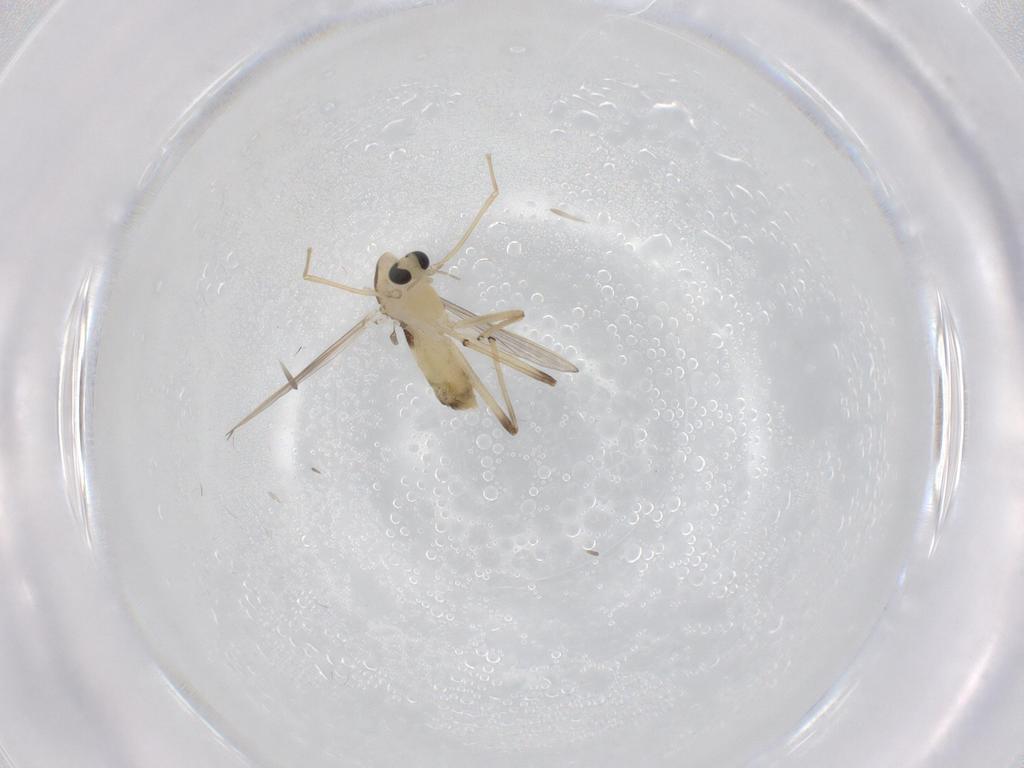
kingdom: Animalia
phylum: Arthropoda
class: Insecta
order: Diptera
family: Chironomidae
